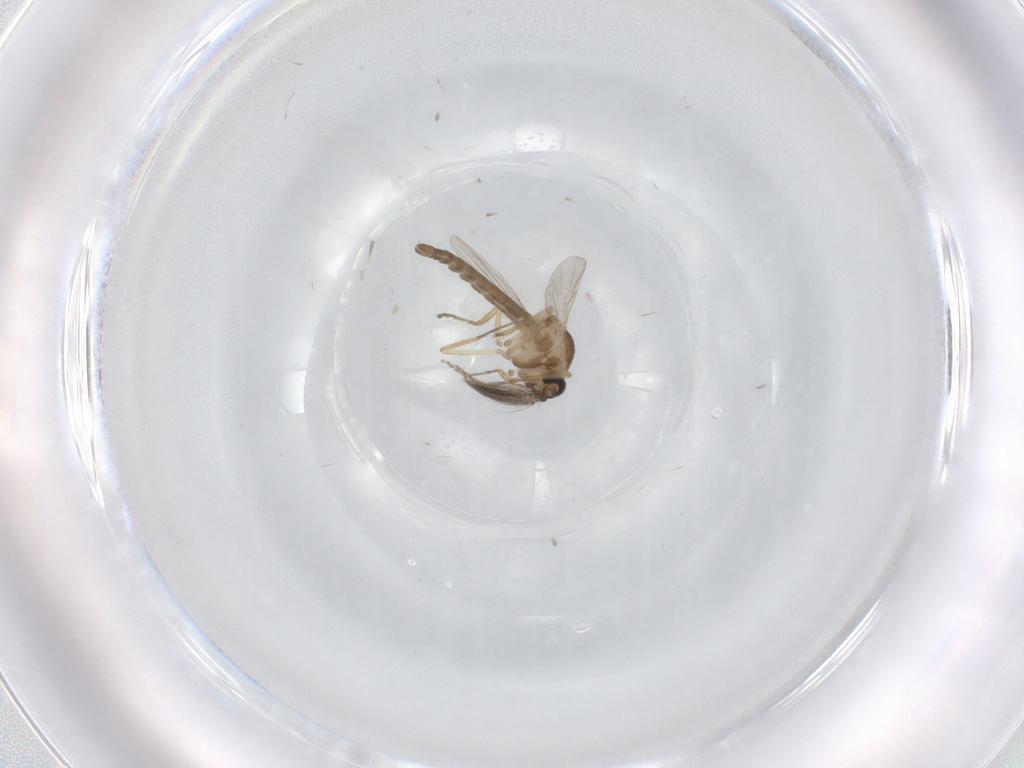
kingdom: Animalia
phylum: Arthropoda
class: Insecta
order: Diptera
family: Ceratopogonidae
